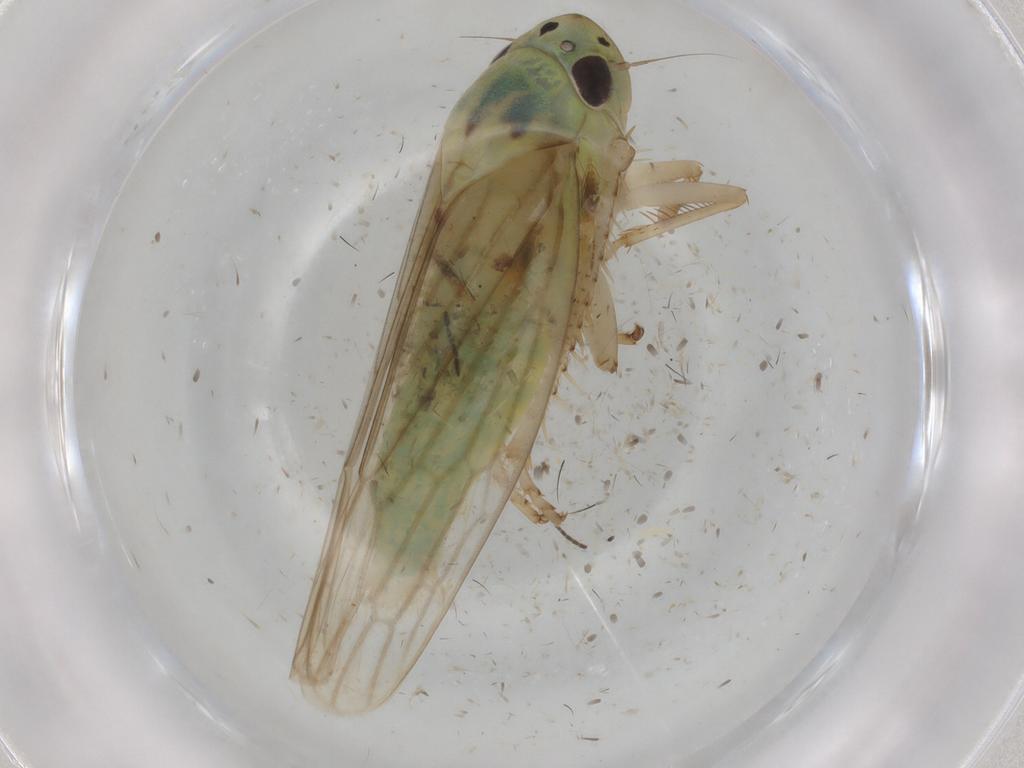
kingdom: Animalia
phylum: Arthropoda
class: Insecta
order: Hemiptera
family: Cicadellidae
